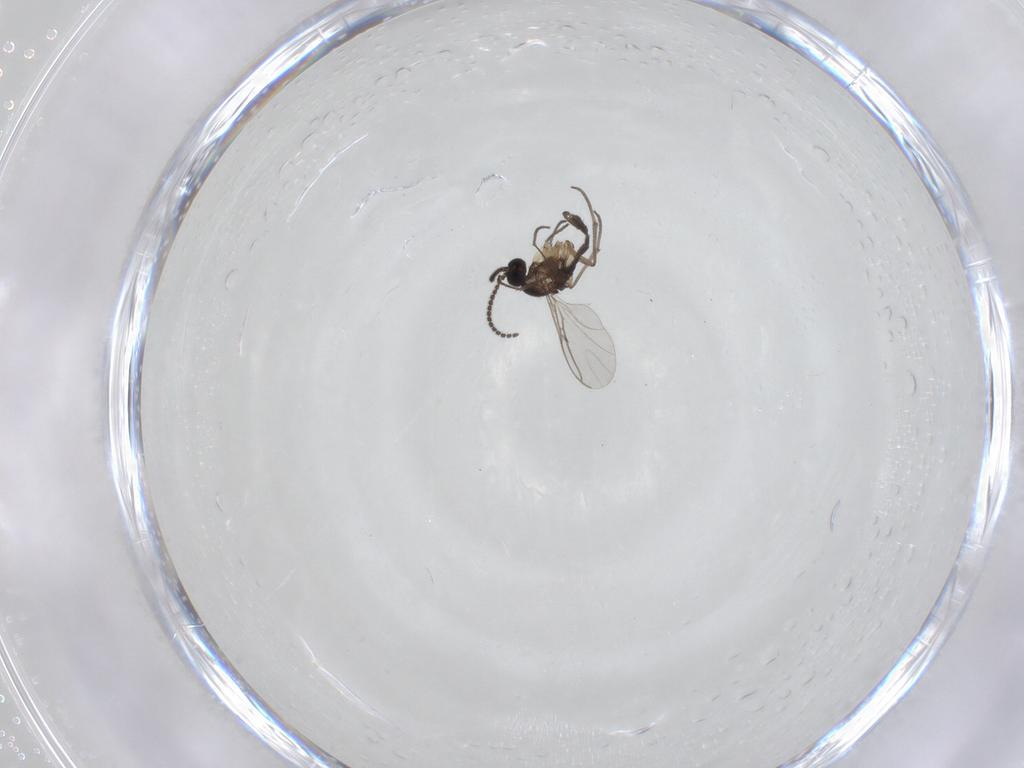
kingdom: Animalia
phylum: Arthropoda
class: Insecta
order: Diptera
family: Sciaridae
